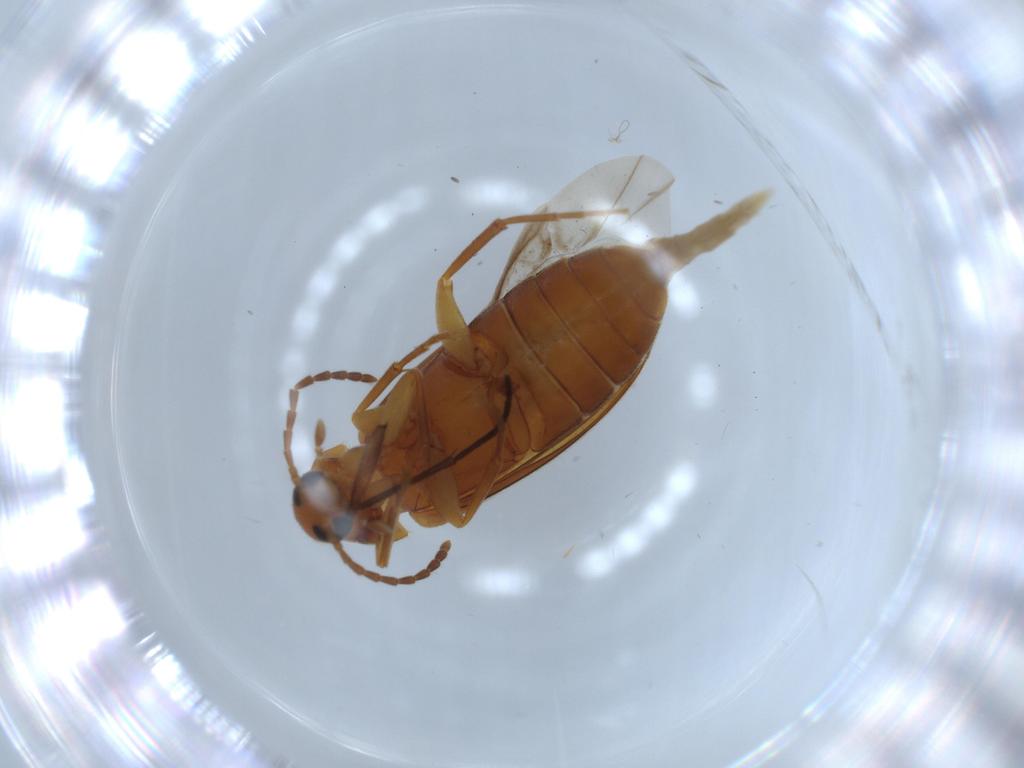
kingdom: Animalia
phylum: Arthropoda
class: Insecta
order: Coleoptera
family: Scraptiidae
